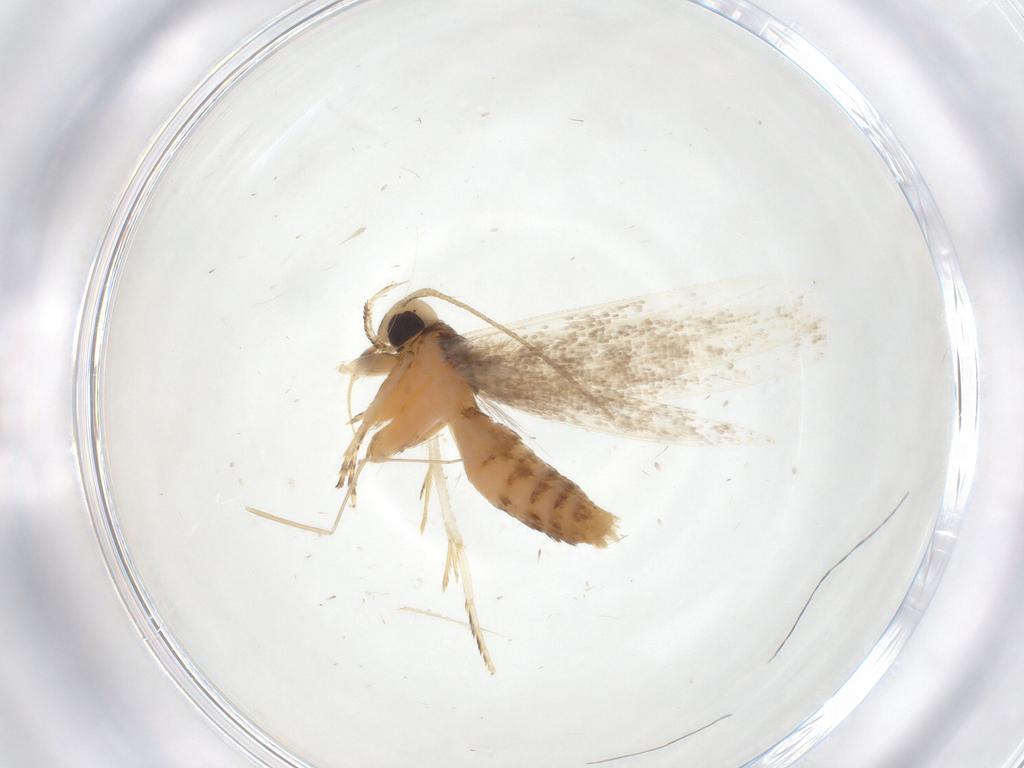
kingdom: Animalia
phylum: Arthropoda
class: Insecta
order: Lepidoptera
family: Cosmopterigidae
